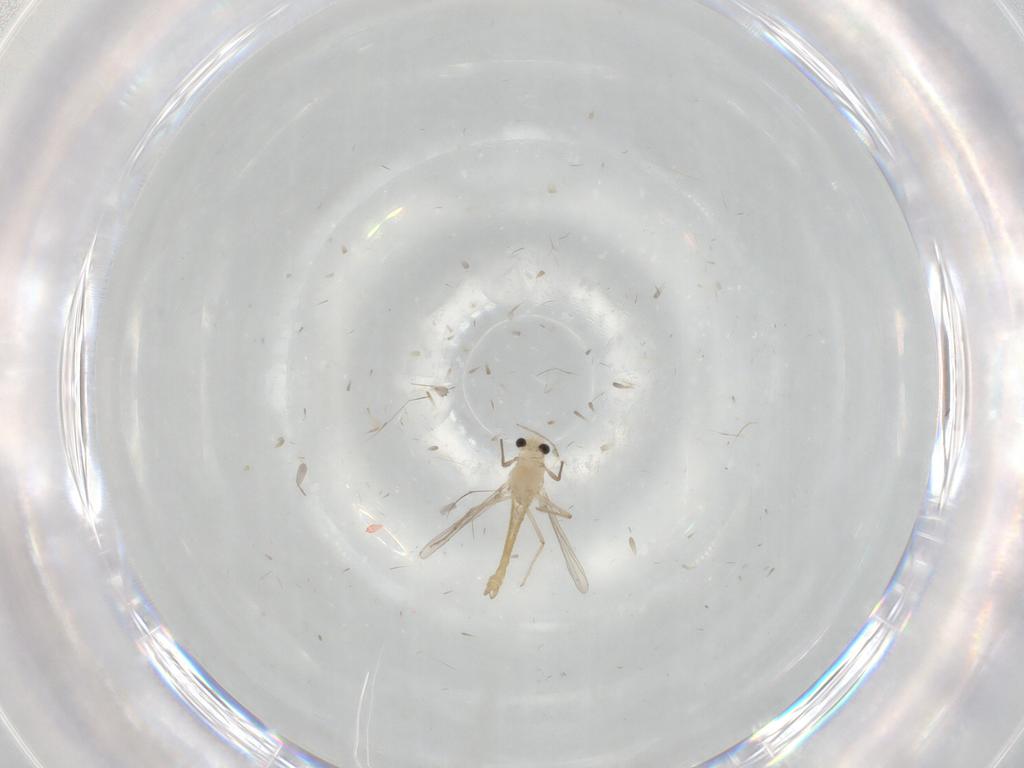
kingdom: Animalia
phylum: Arthropoda
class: Insecta
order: Diptera
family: Chironomidae
